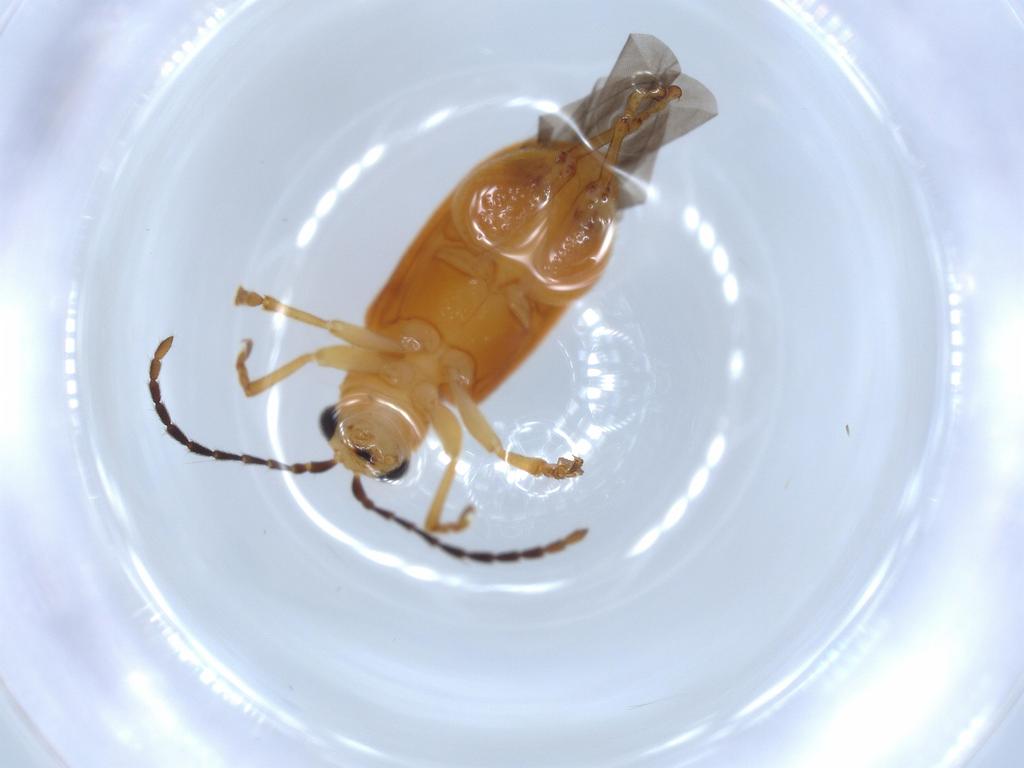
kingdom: Animalia
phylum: Arthropoda
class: Insecta
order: Coleoptera
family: Chrysomelidae
